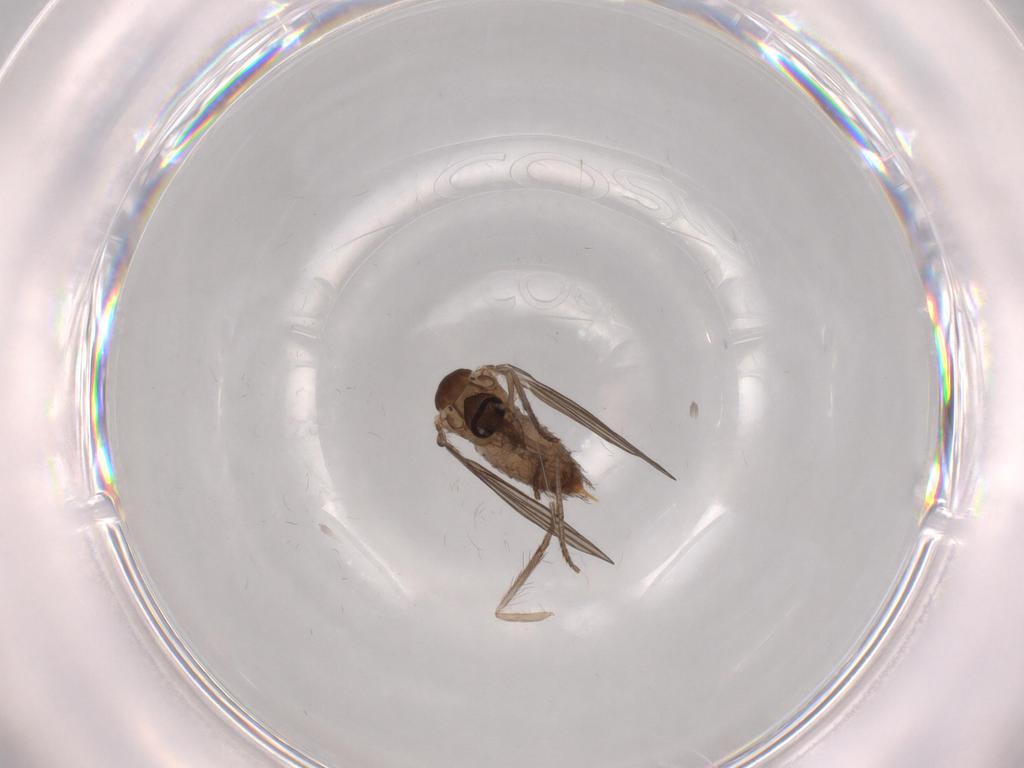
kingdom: Animalia
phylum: Arthropoda
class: Insecta
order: Diptera
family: Psychodidae
